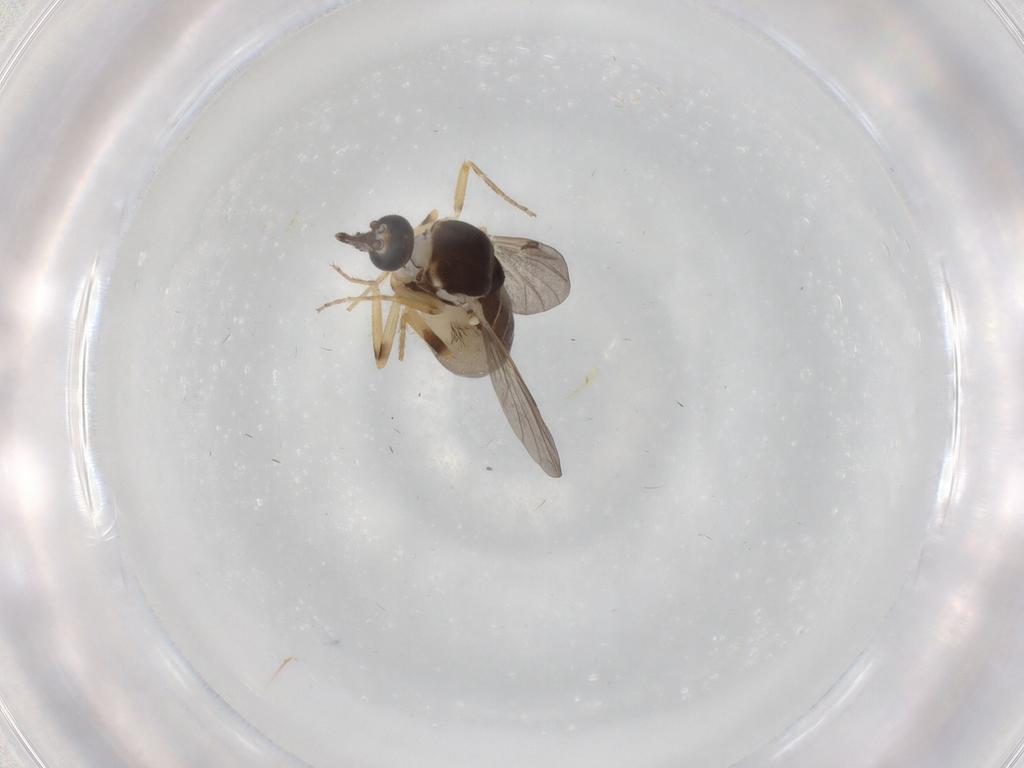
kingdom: Animalia
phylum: Arthropoda
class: Insecta
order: Diptera
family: Ceratopogonidae
